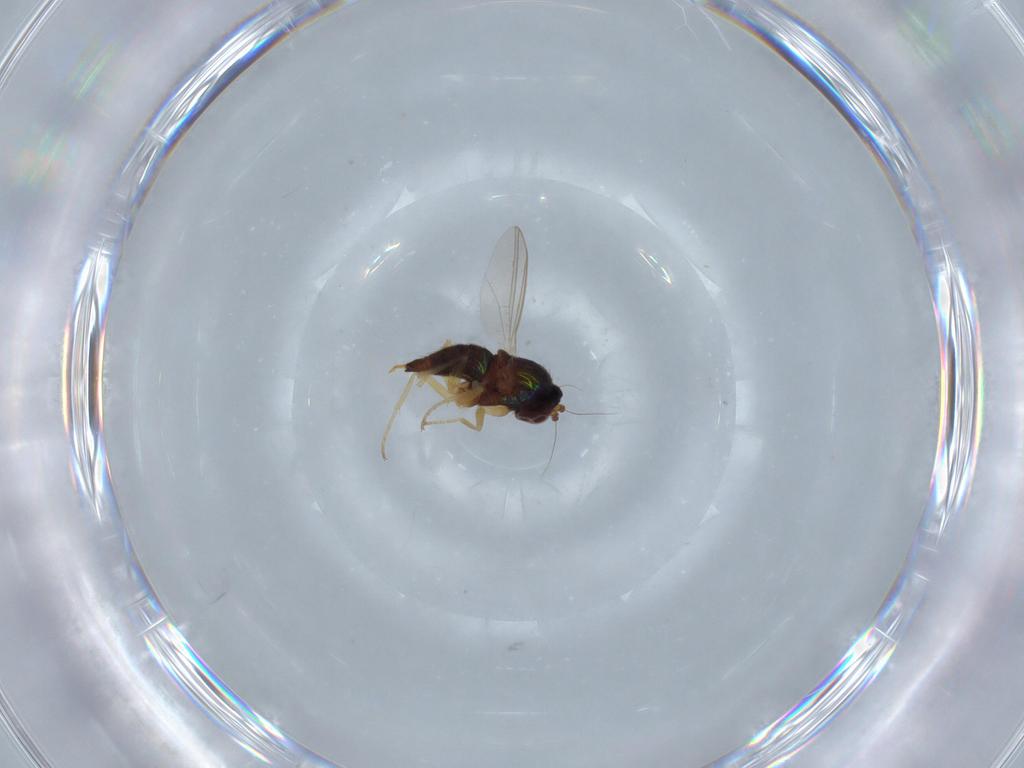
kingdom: Animalia
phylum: Arthropoda
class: Insecta
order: Diptera
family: Dolichopodidae
